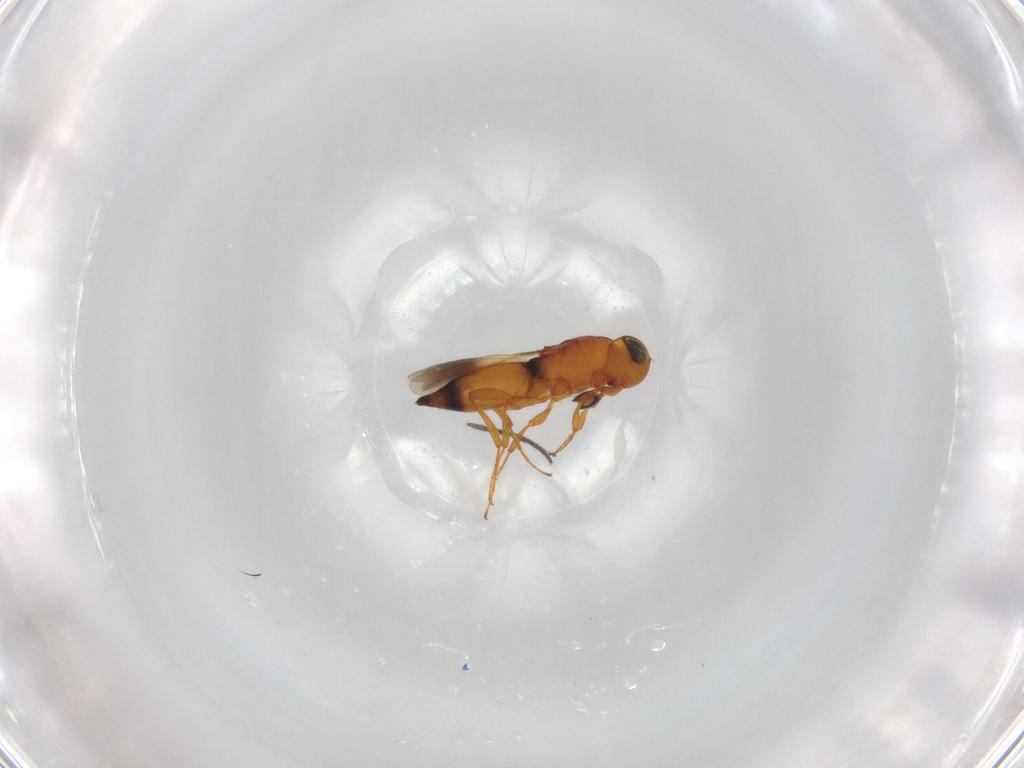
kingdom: Animalia
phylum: Arthropoda
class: Insecta
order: Hymenoptera
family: Platygastridae
